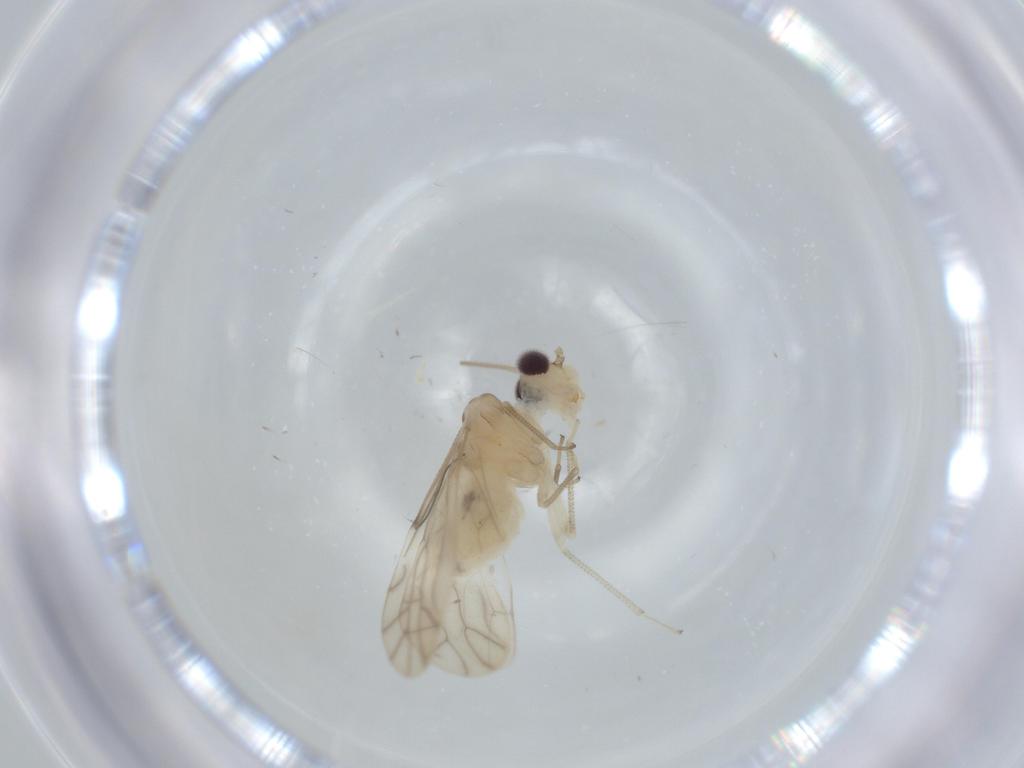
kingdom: Animalia
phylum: Arthropoda
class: Insecta
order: Psocodea
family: Caeciliusidae
